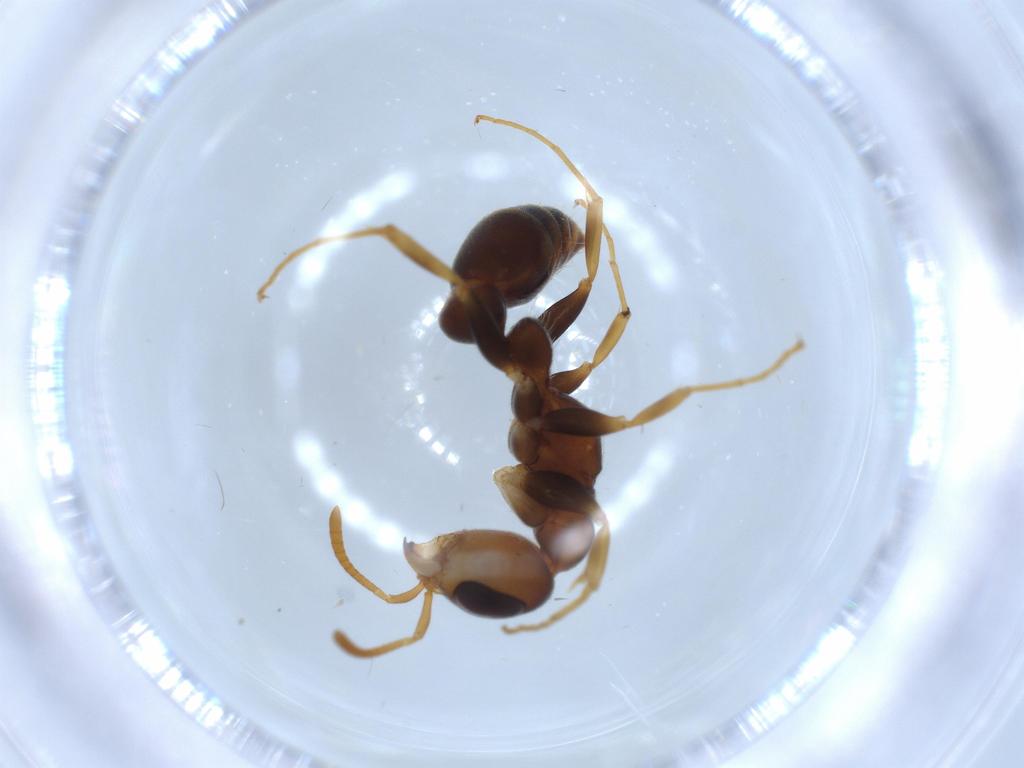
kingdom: Animalia
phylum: Arthropoda
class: Insecta
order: Hymenoptera
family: Formicidae
